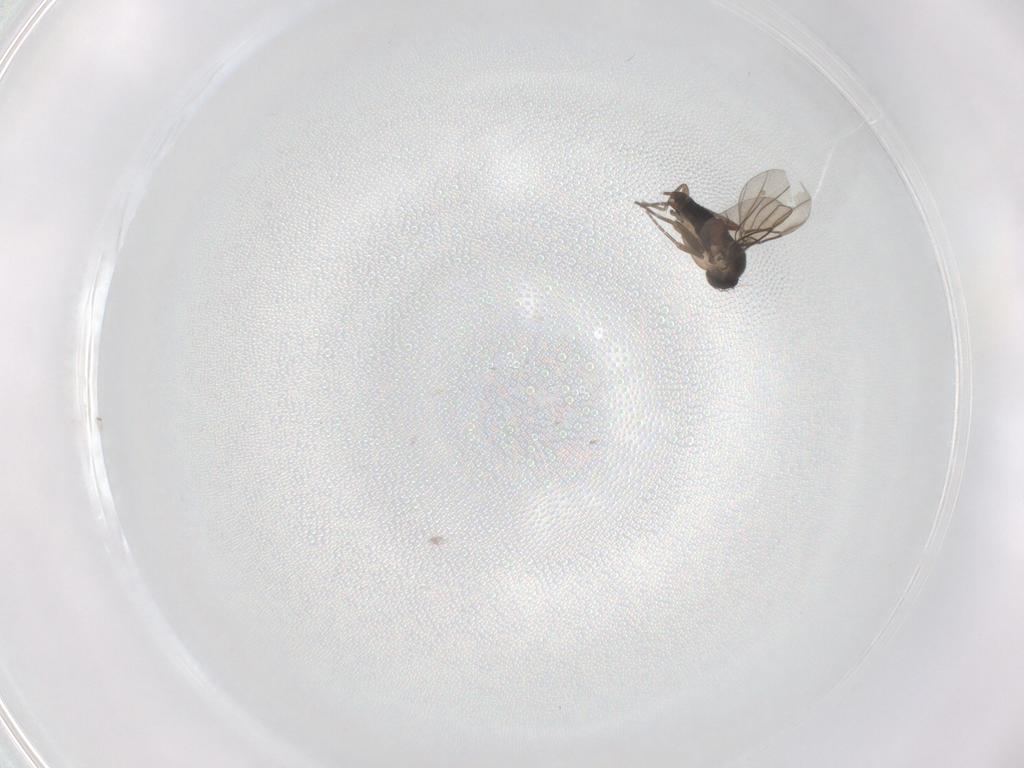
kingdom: Animalia
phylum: Arthropoda
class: Insecta
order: Diptera
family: Phoridae
